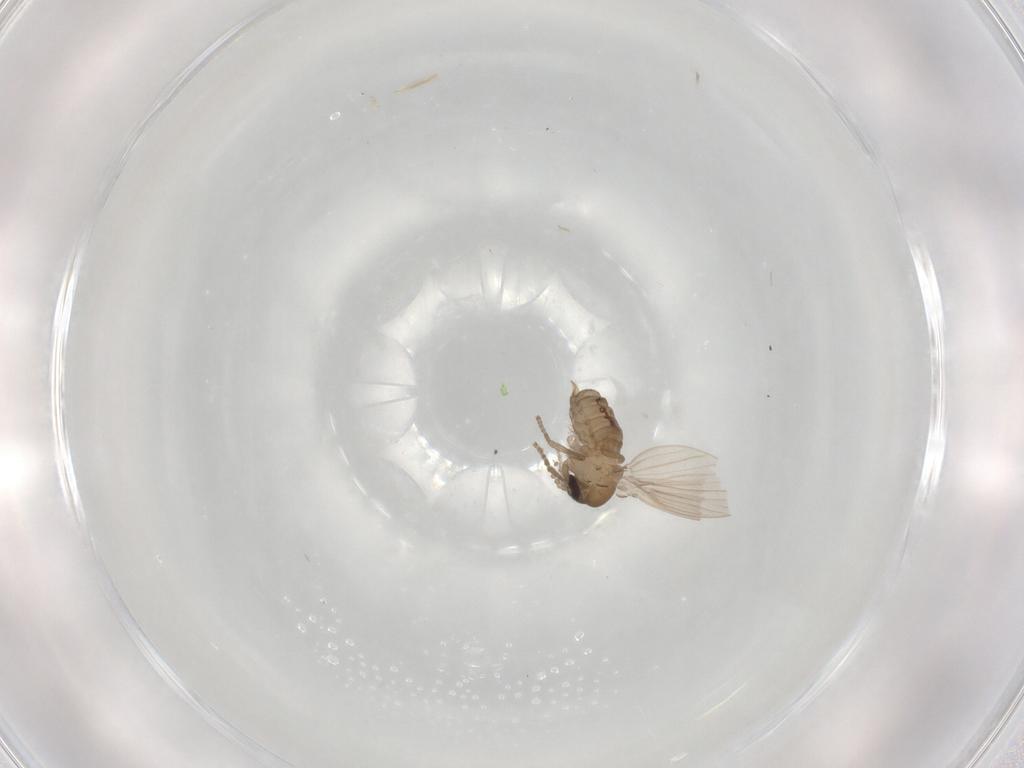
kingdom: Animalia
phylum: Arthropoda
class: Insecta
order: Diptera
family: Psychodidae
